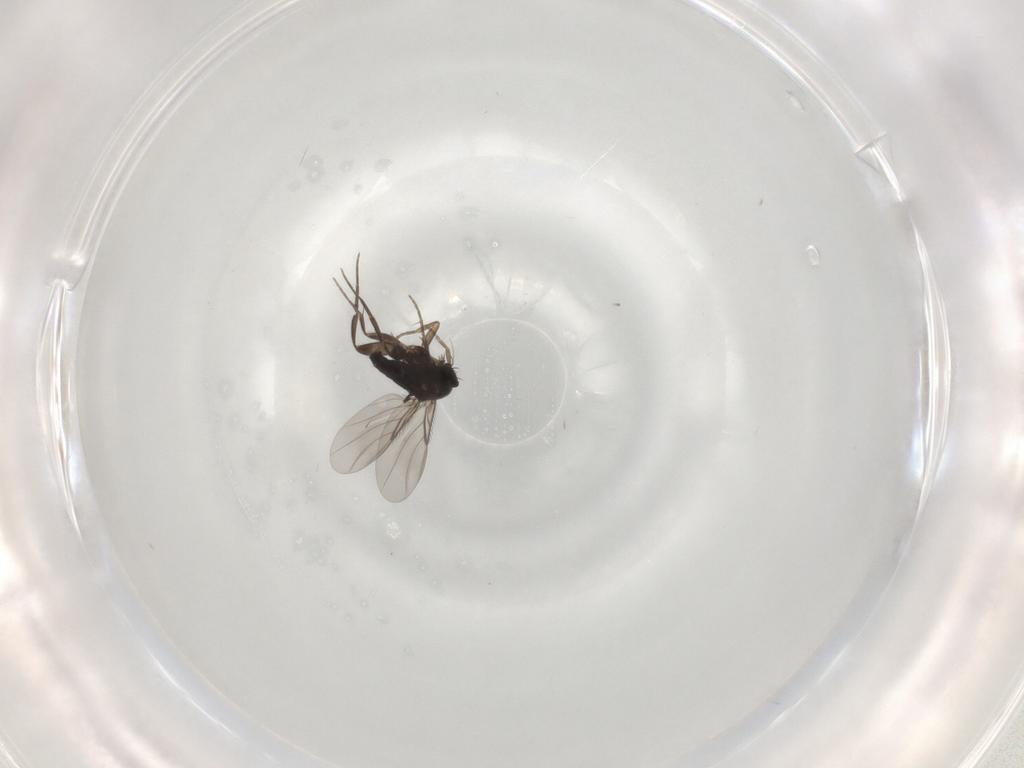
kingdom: Animalia
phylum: Arthropoda
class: Insecta
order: Diptera
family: Phoridae
